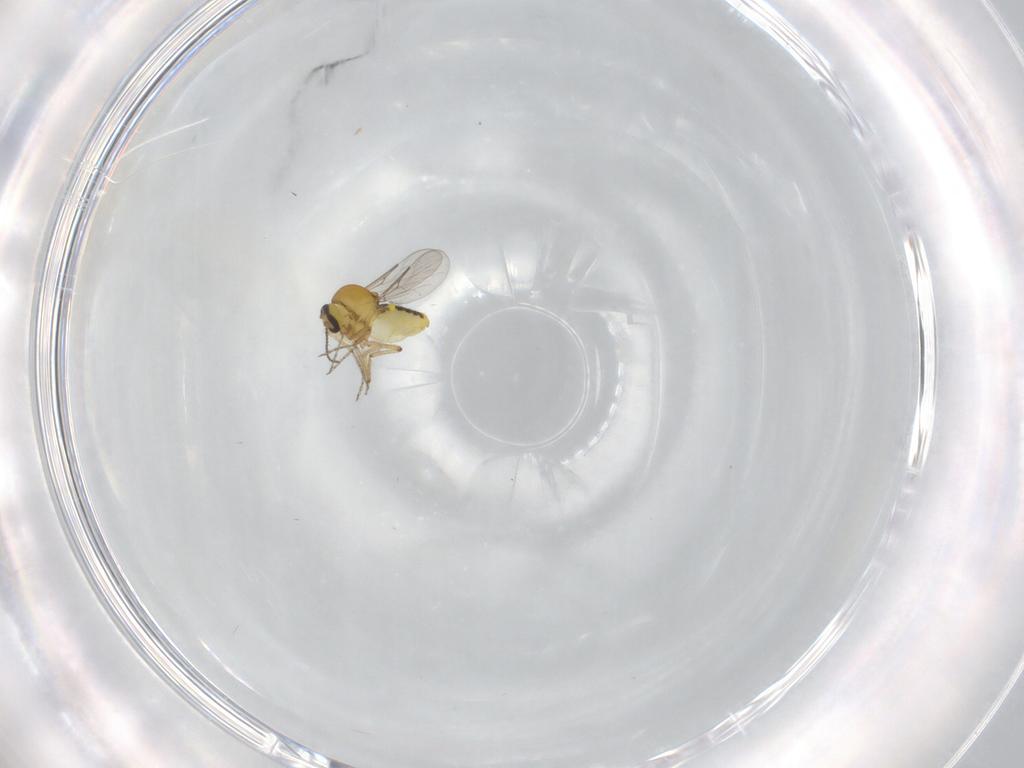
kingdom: Animalia
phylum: Arthropoda
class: Insecta
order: Diptera
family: Ceratopogonidae
